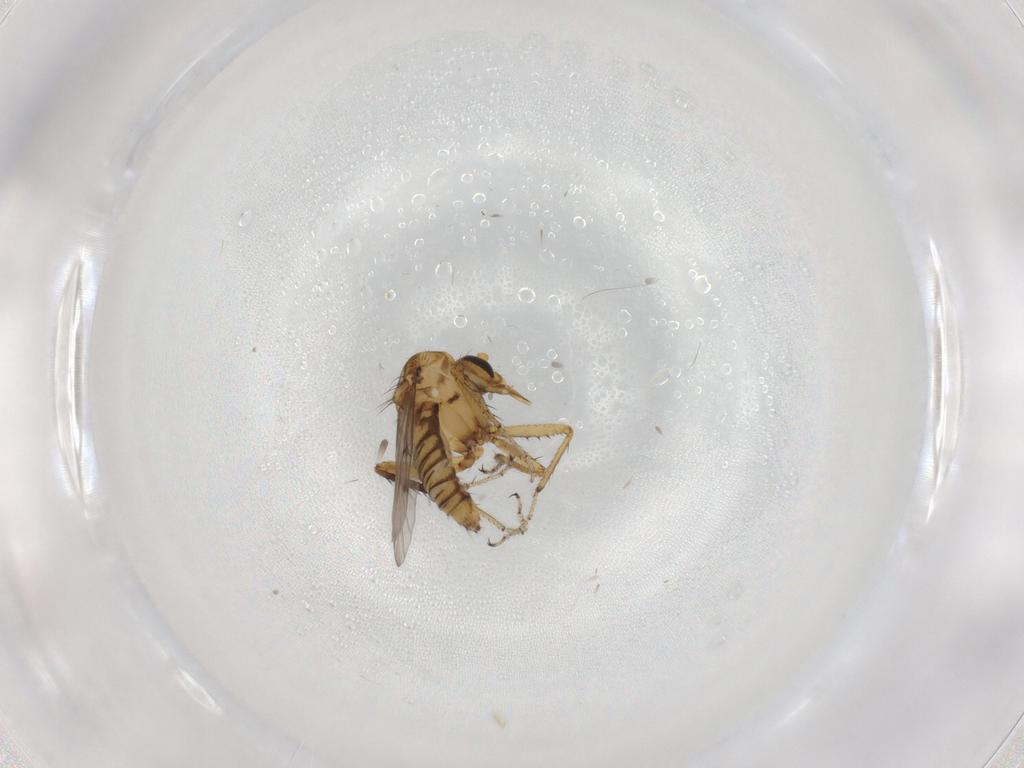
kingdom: Animalia
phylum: Arthropoda
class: Insecta
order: Diptera
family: Ceratopogonidae
